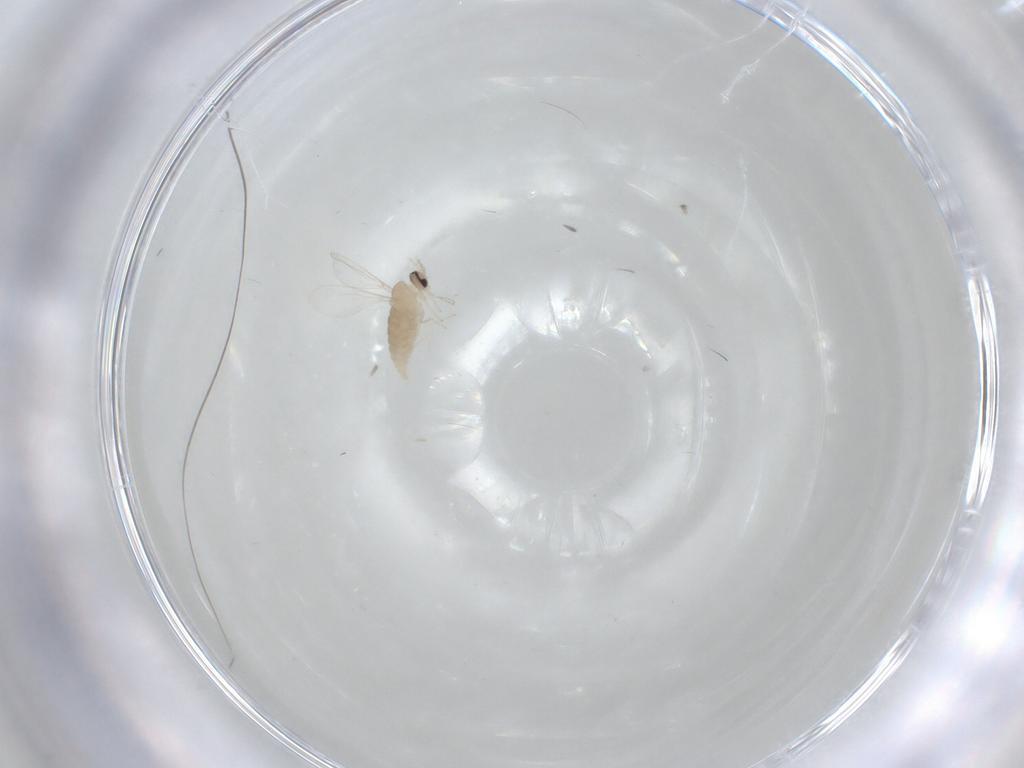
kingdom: Animalia
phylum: Arthropoda
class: Insecta
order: Diptera
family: Cecidomyiidae
